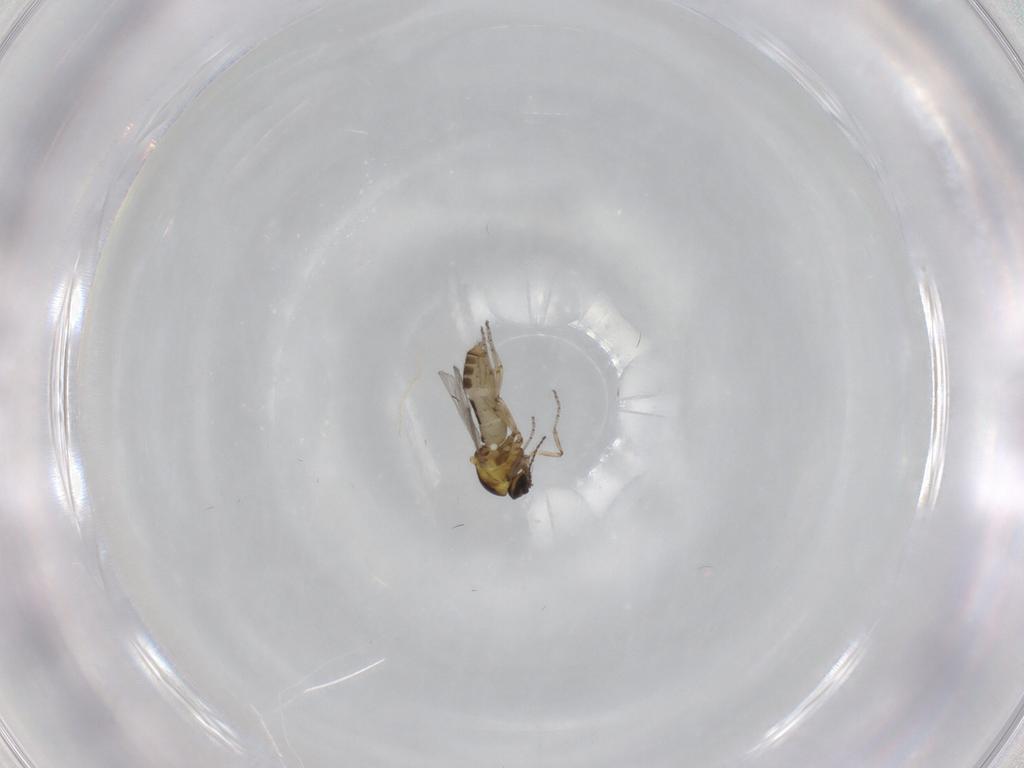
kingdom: Animalia
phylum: Arthropoda
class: Insecta
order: Diptera
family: Ceratopogonidae
